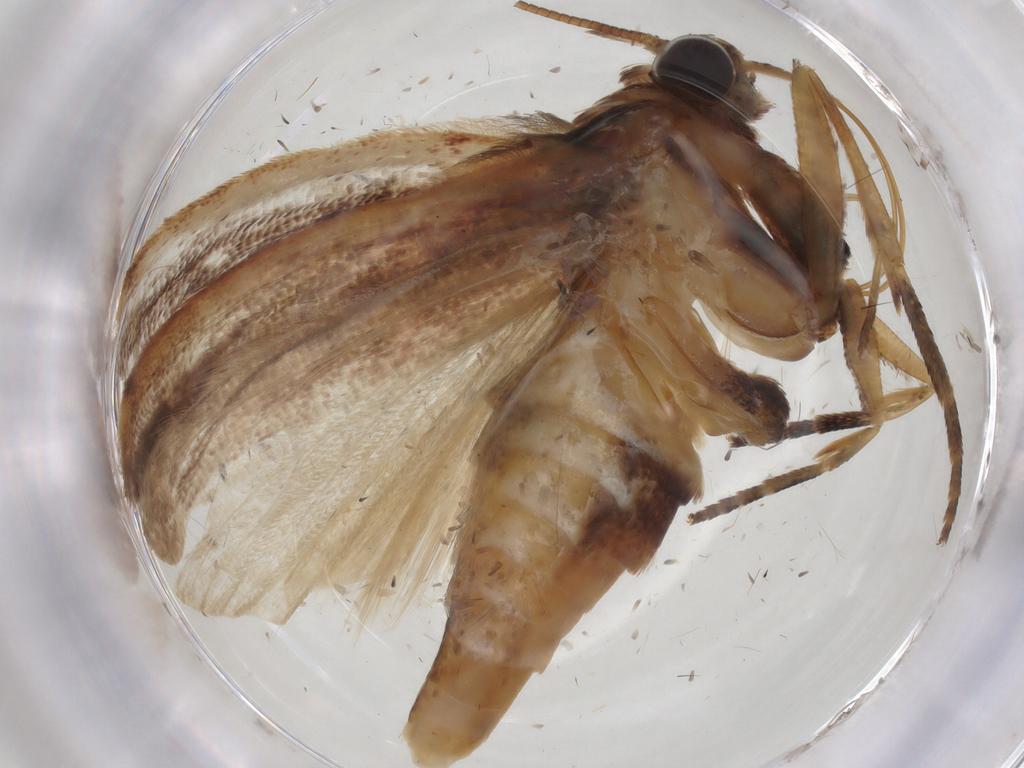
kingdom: Animalia
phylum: Arthropoda
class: Insecta
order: Lepidoptera
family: Pyralidae
